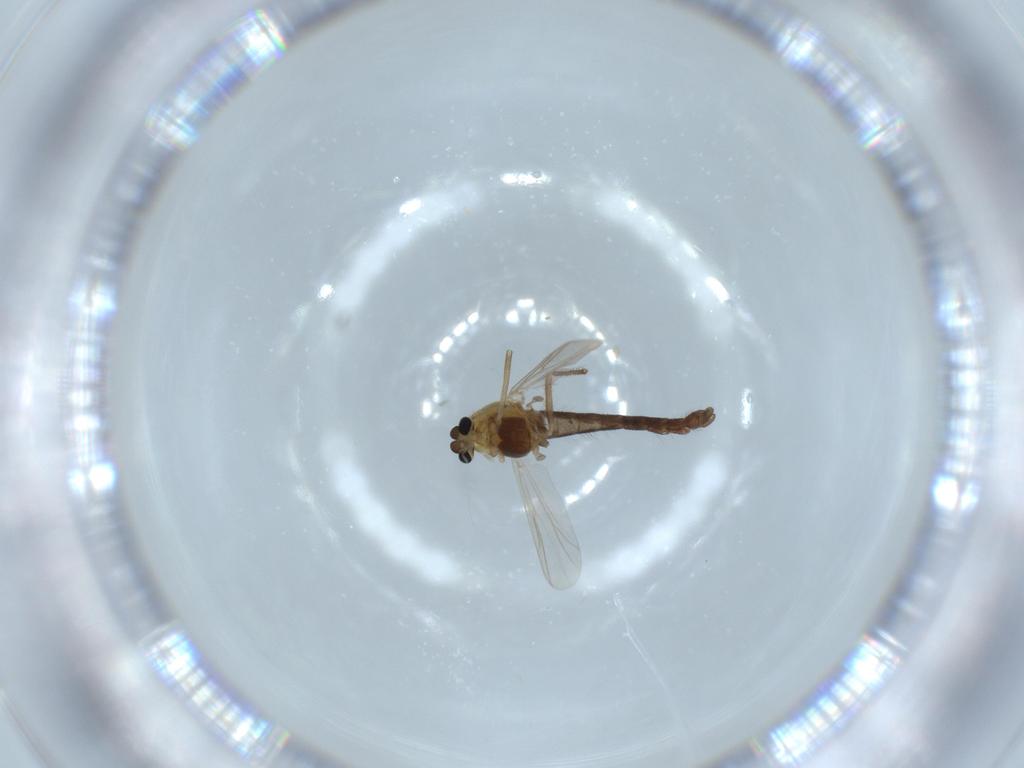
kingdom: Animalia
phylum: Arthropoda
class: Insecta
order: Diptera
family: Chironomidae
